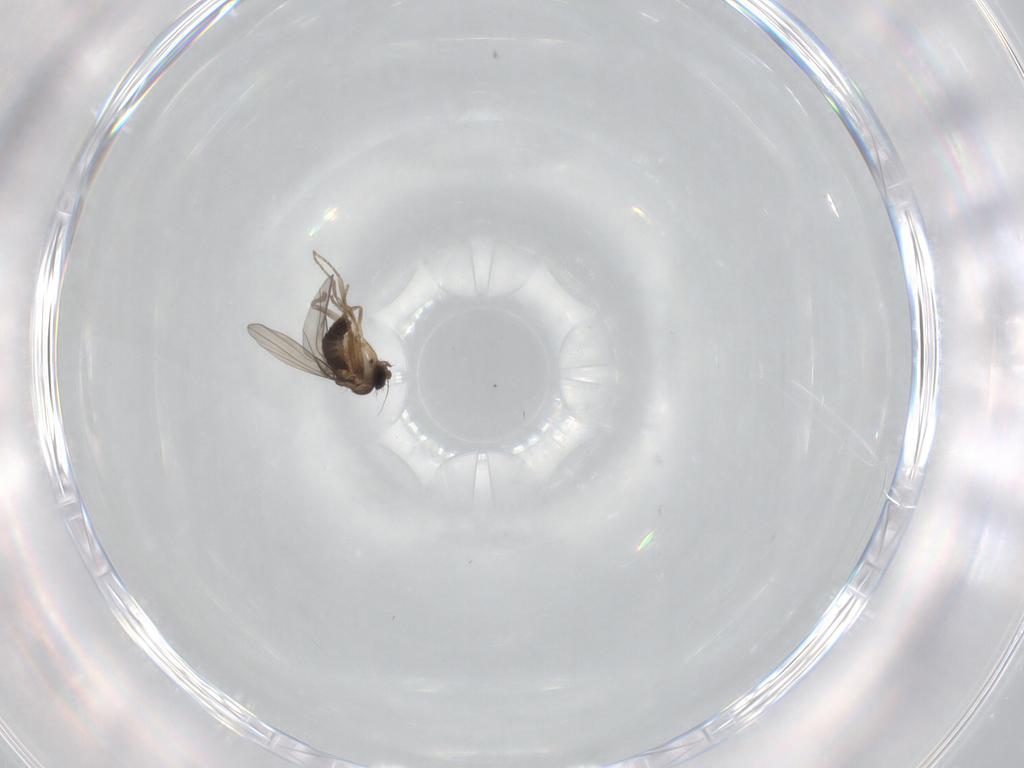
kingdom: Animalia
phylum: Arthropoda
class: Insecta
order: Diptera
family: Phoridae
